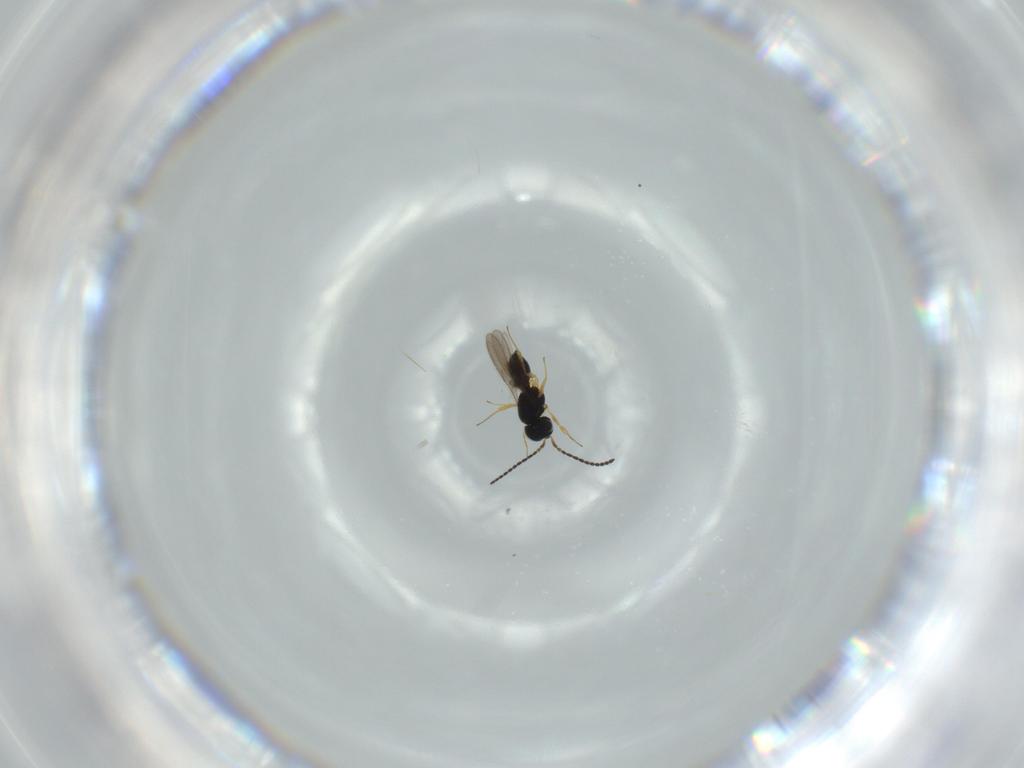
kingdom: Animalia
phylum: Arthropoda
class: Insecta
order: Hymenoptera
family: Scelionidae
